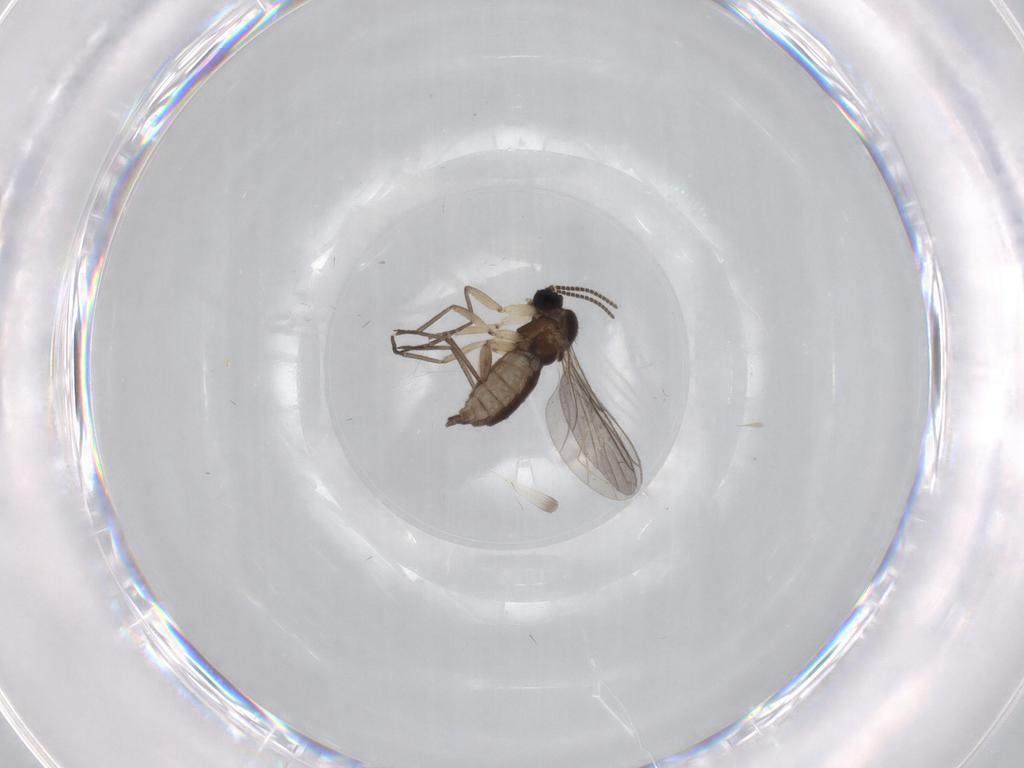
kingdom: Animalia
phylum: Arthropoda
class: Insecta
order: Diptera
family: Sciaridae
